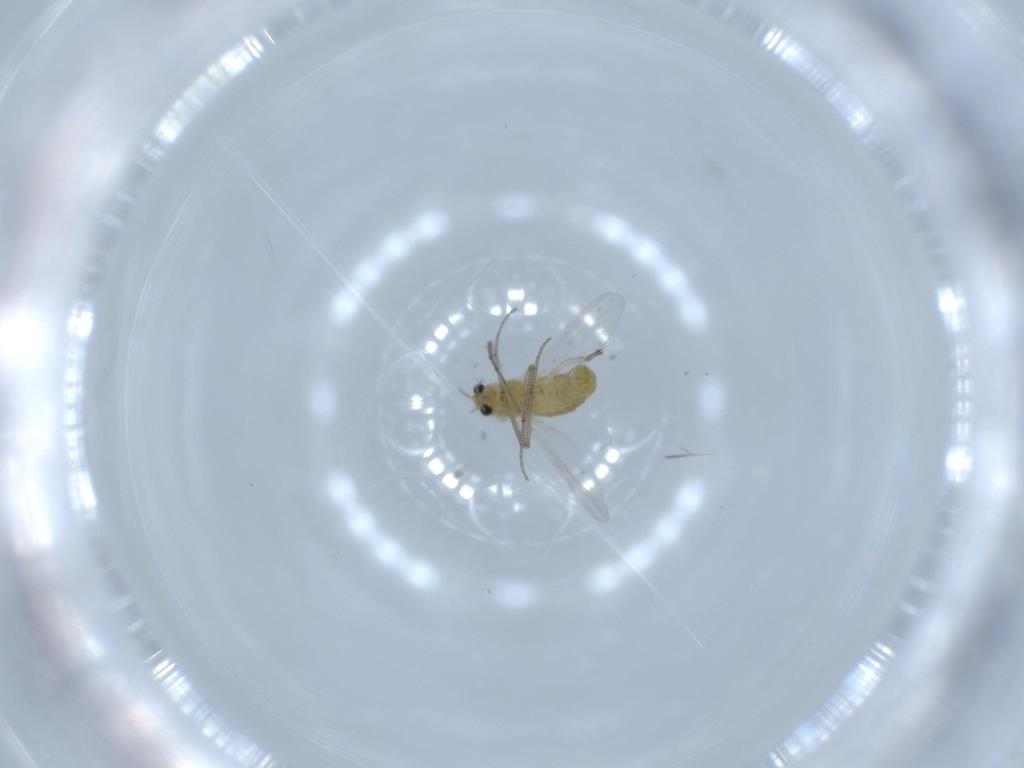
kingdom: Animalia
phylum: Arthropoda
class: Insecta
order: Diptera
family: Chironomidae
